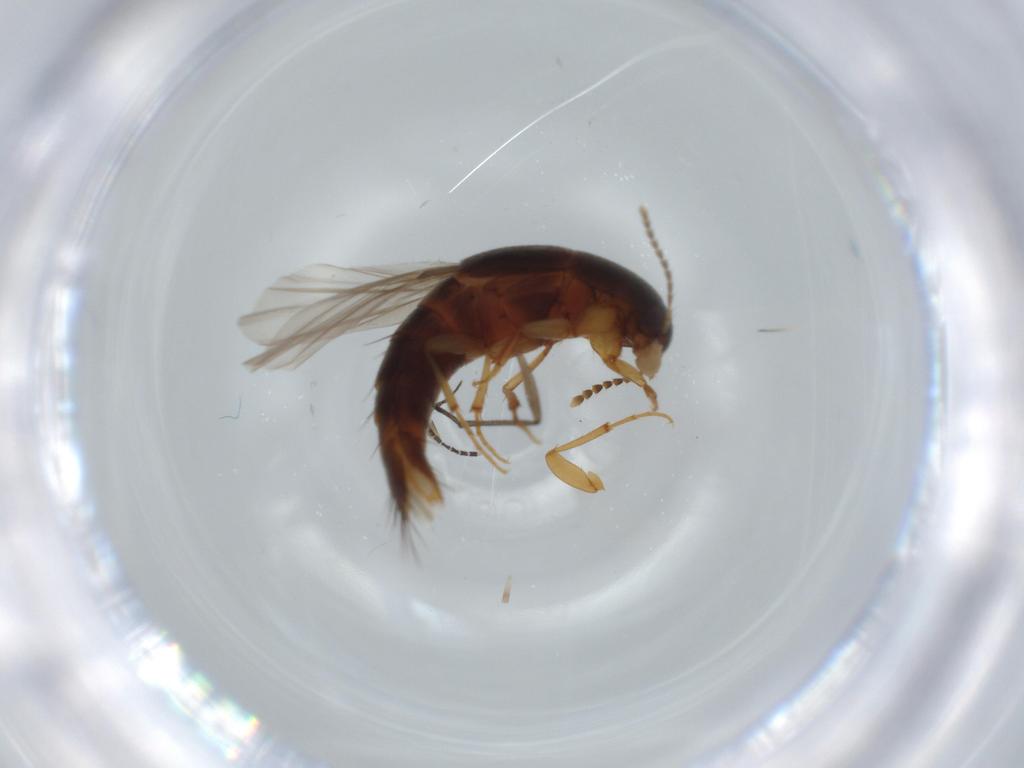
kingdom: Animalia
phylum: Arthropoda
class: Insecta
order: Coleoptera
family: Staphylinidae
